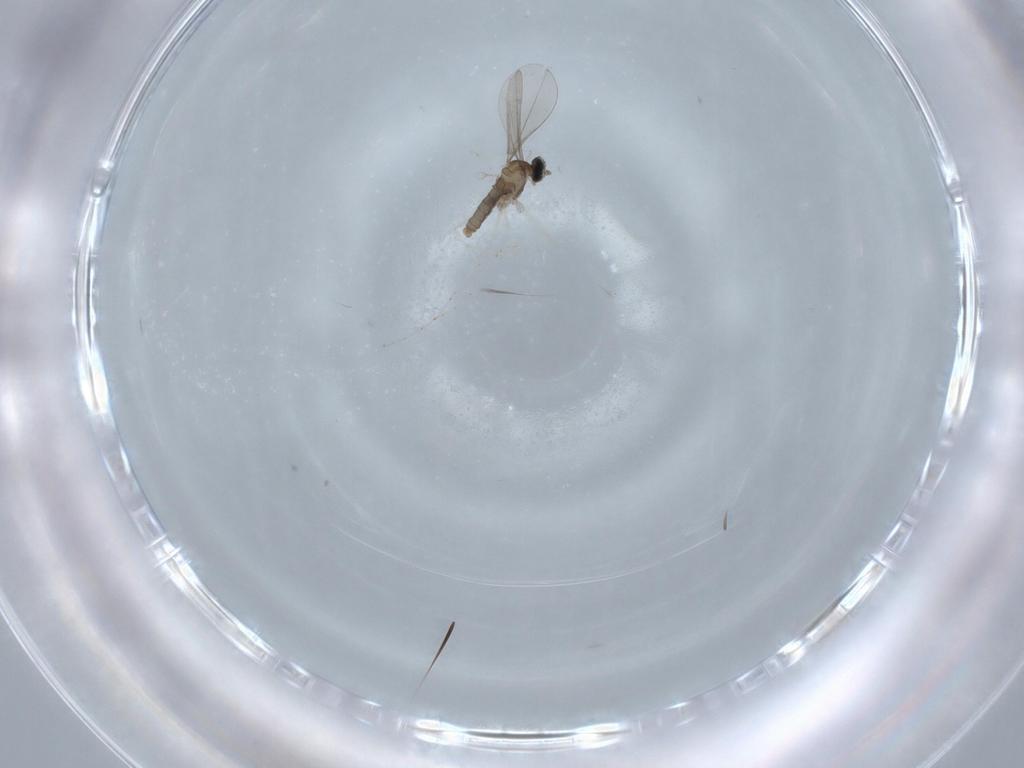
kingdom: Animalia
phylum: Arthropoda
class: Insecta
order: Diptera
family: Cecidomyiidae
